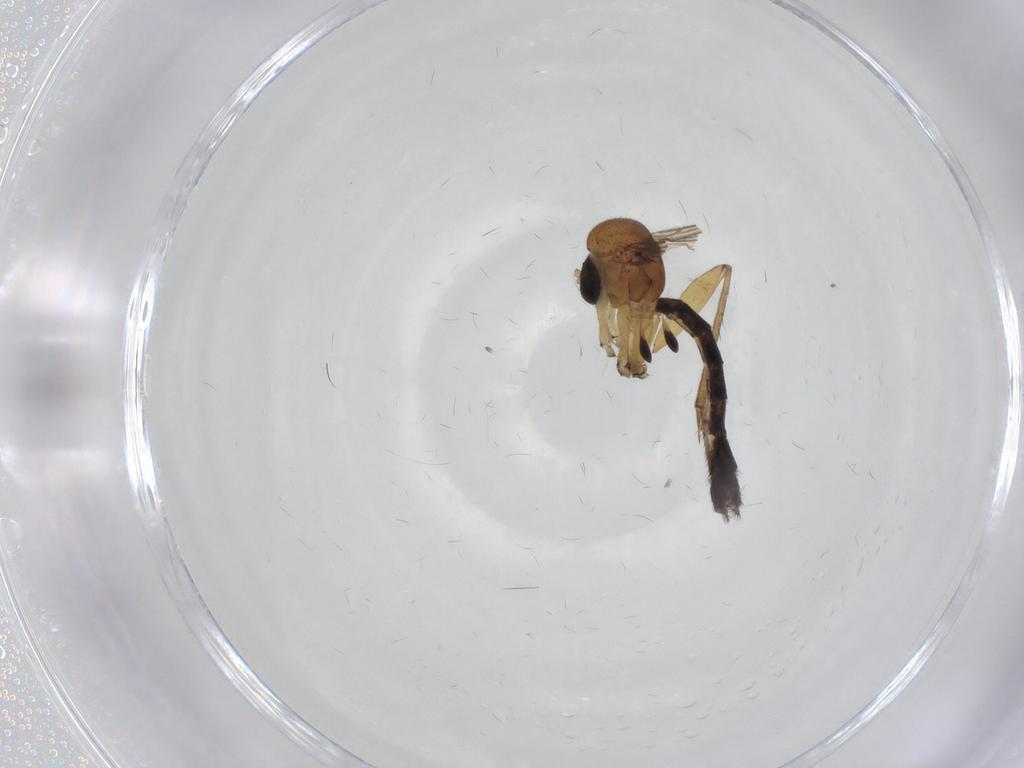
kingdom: Animalia
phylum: Arthropoda
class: Insecta
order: Diptera
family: Mycetophilidae
